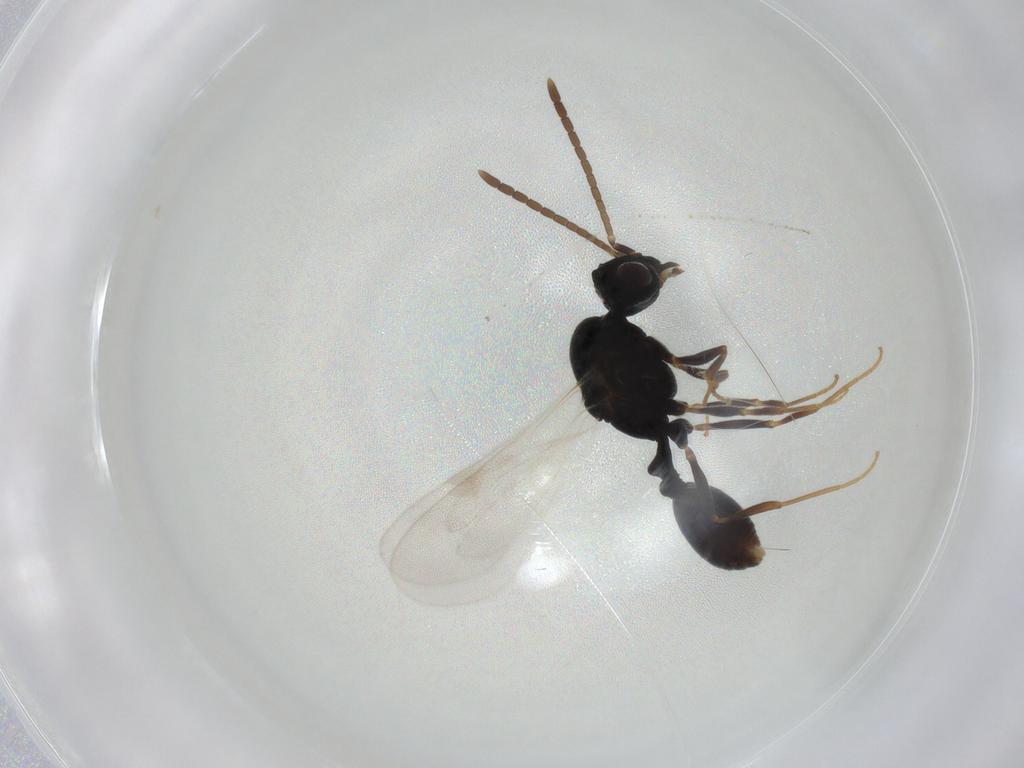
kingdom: Animalia
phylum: Arthropoda
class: Insecta
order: Hymenoptera
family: Formicidae
